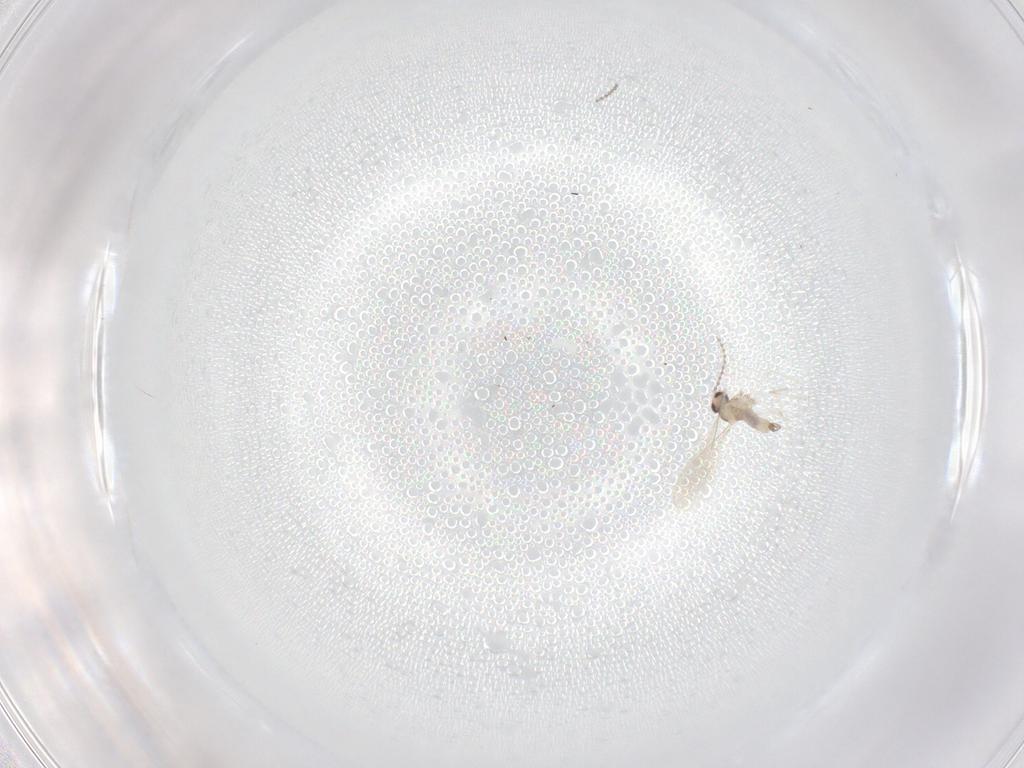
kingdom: Animalia
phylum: Arthropoda
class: Insecta
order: Diptera
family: Cecidomyiidae
